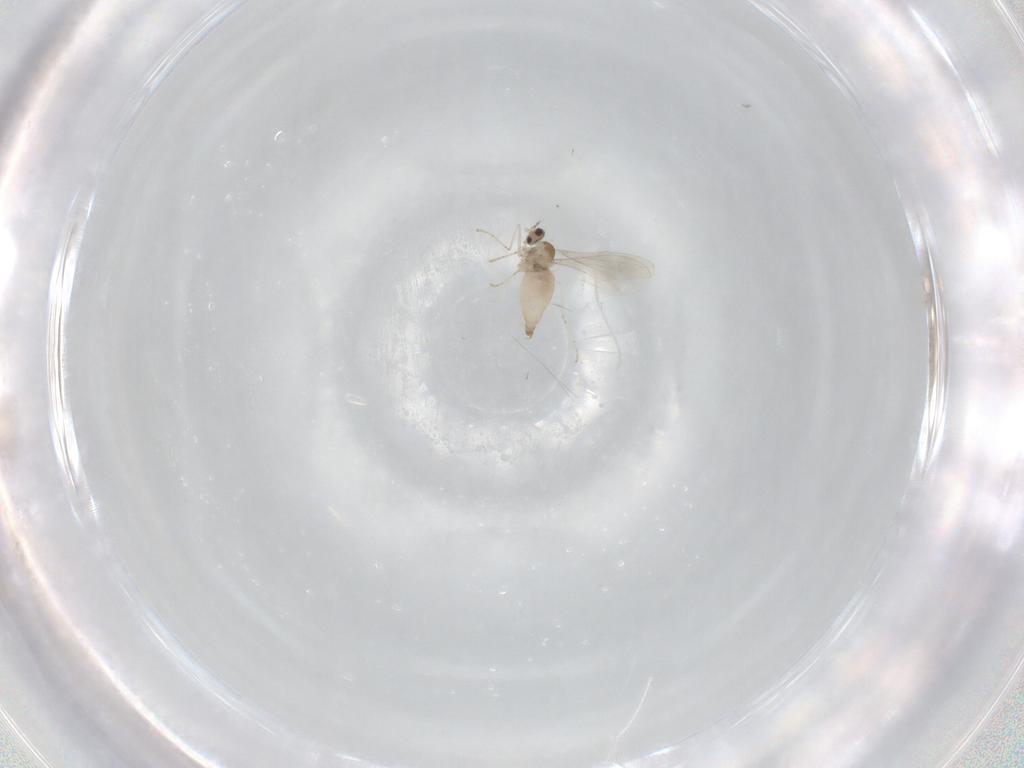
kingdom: Animalia
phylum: Arthropoda
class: Insecta
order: Diptera
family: Cecidomyiidae
